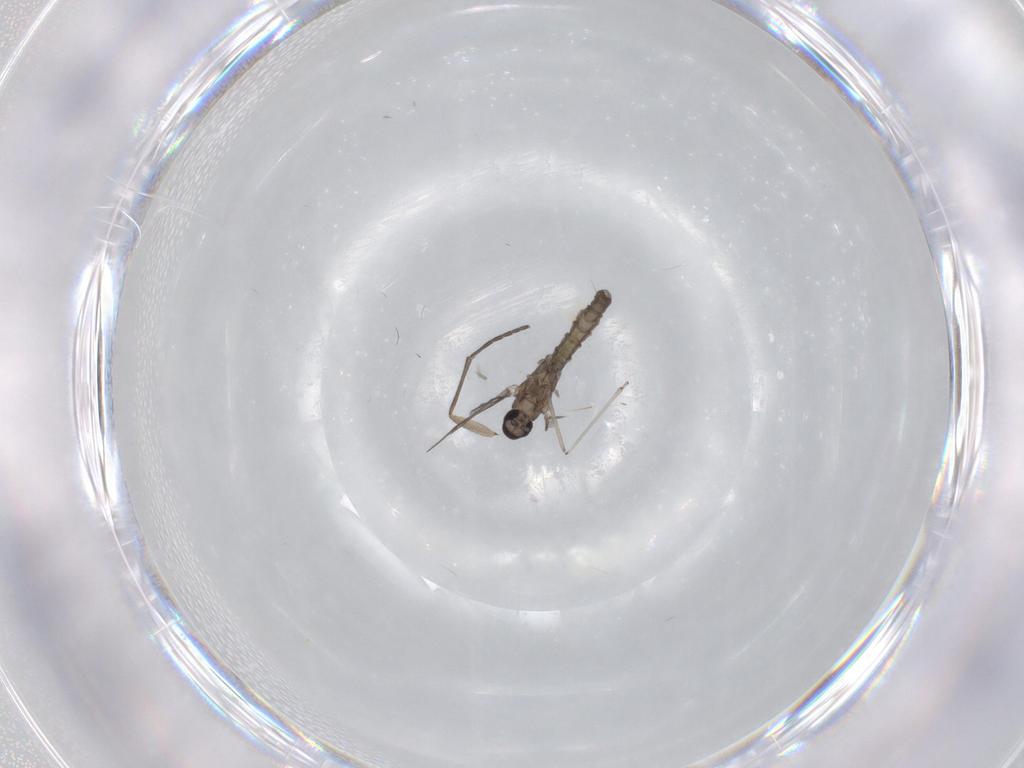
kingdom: Animalia
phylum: Arthropoda
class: Insecta
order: Diptera
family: Sciaridae
